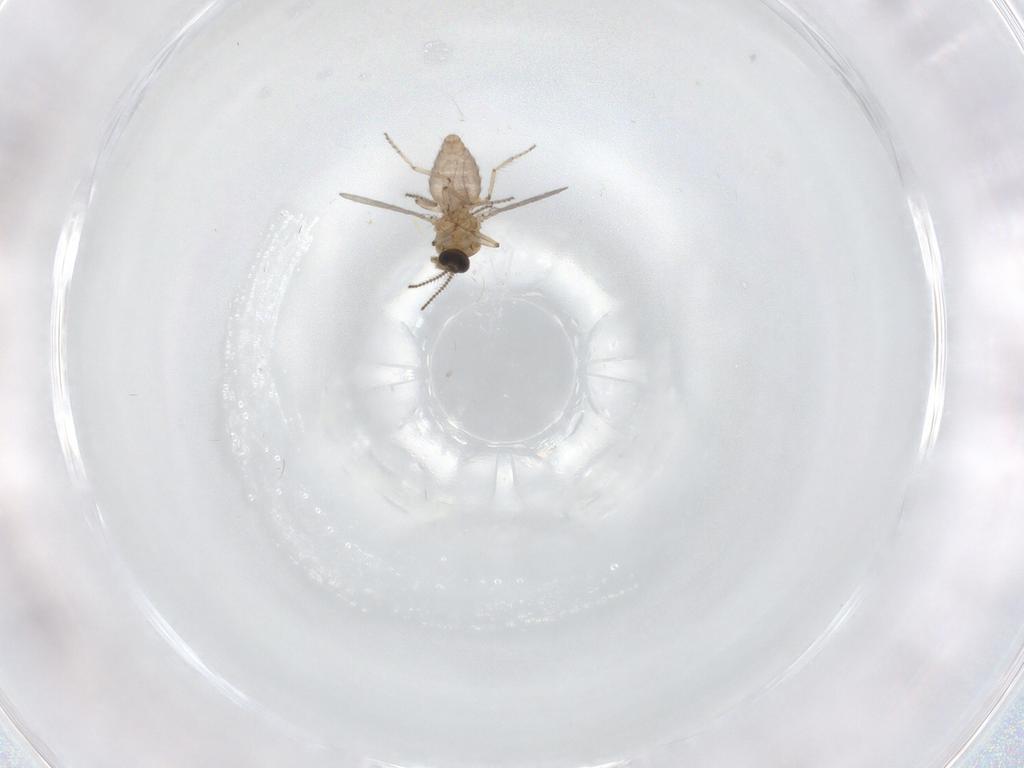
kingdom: Animalia
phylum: Arthropoda
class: Insecta
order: Diptera
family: Ceratopogonidae
